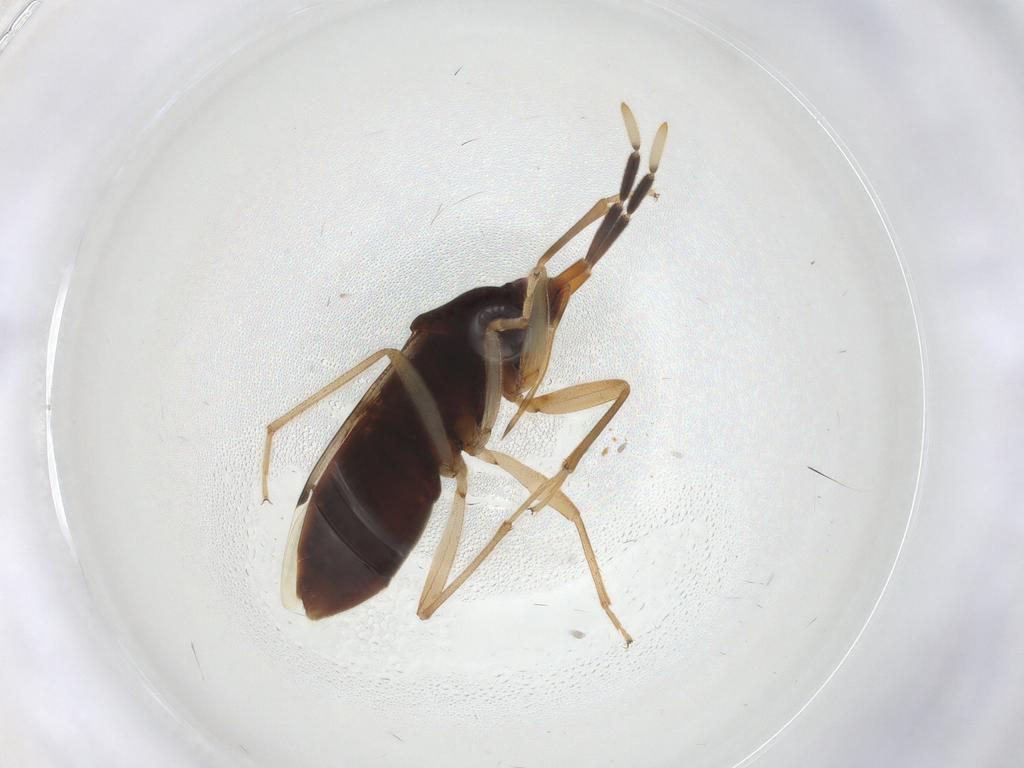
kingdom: Animalia
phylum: Arthropoda
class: Insecta
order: Hemiptera
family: Rhyparochromidae
